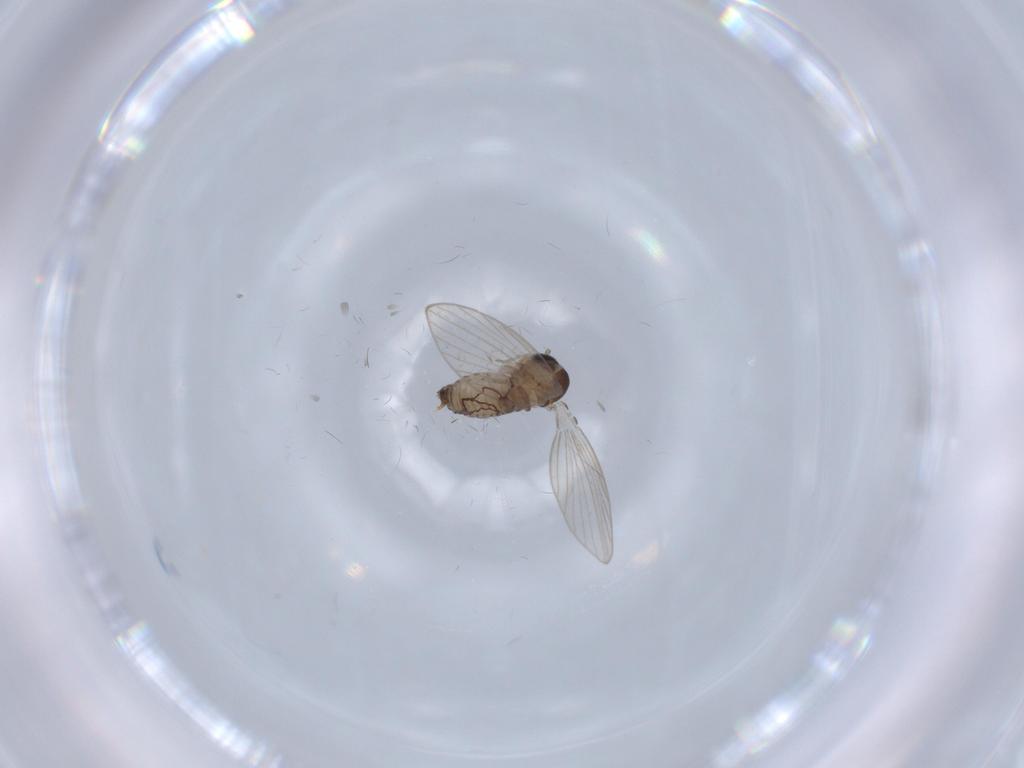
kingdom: Animalia
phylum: Arthropoda
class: Insecta
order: Diptera
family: Psychodidae
